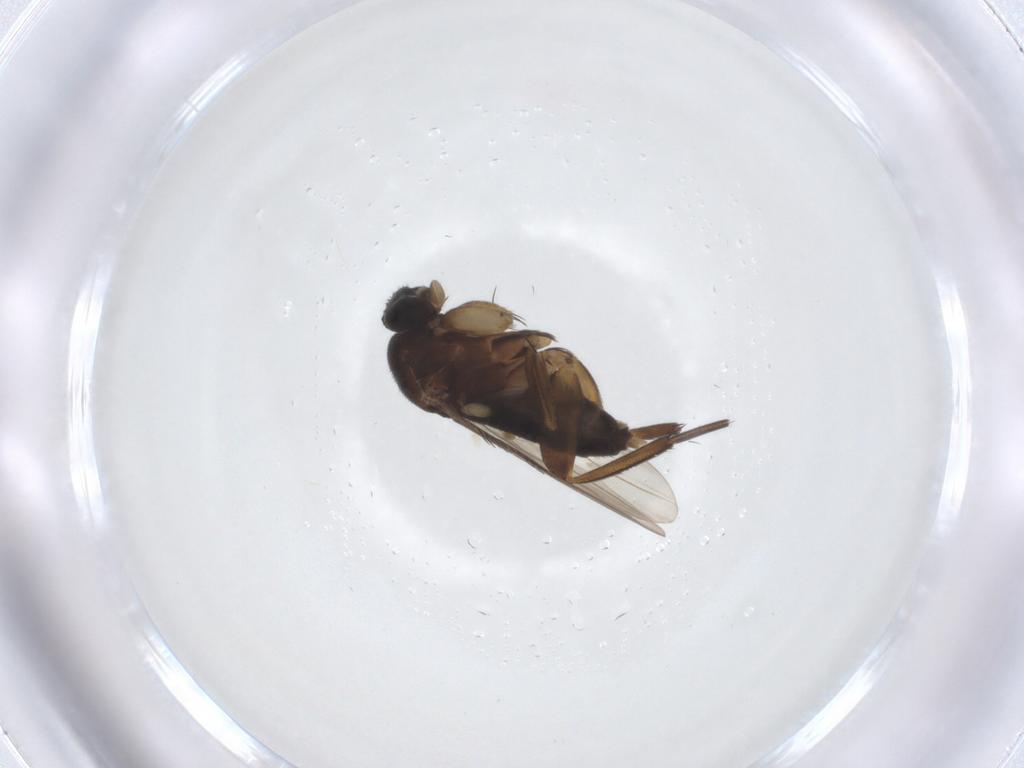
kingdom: Animalia
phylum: Arthropoda
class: Insecta
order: Diptera
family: Phoridae
